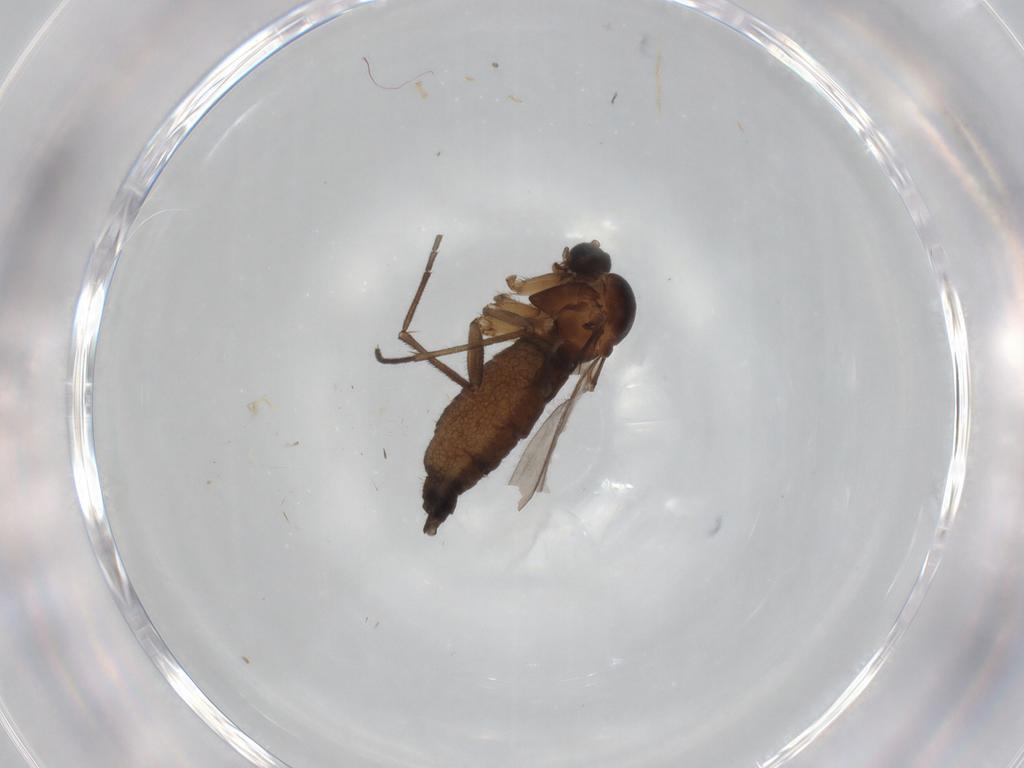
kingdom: Animalia
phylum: Arthropoda
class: Insecta
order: Diptera
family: Sciaridae
